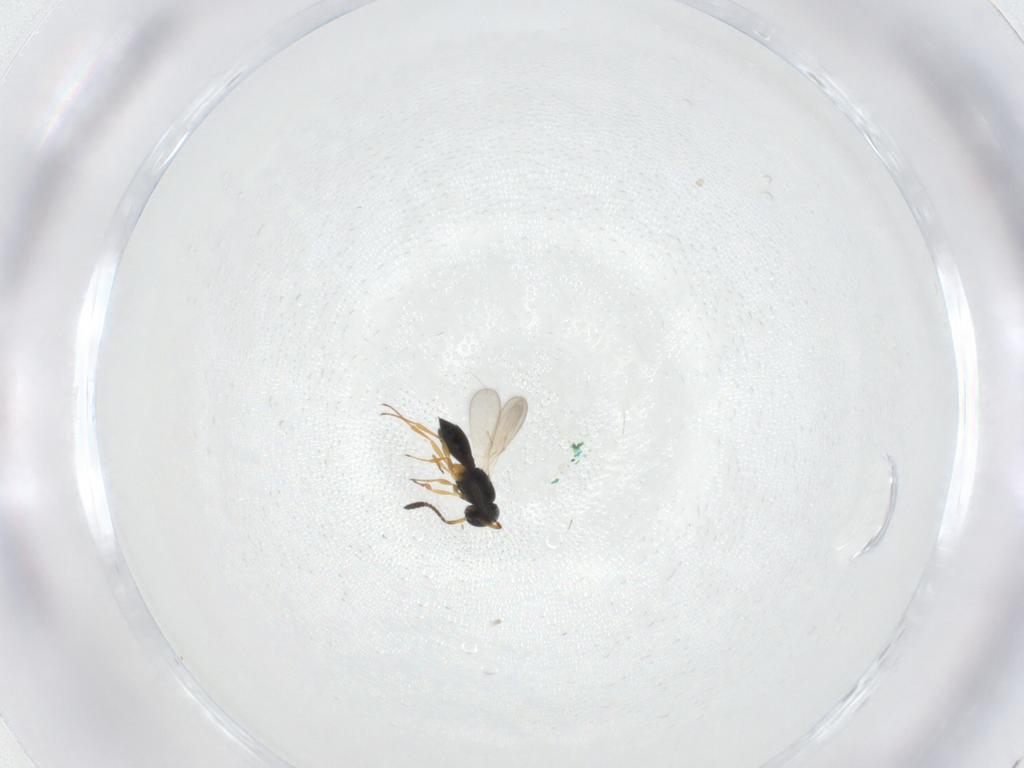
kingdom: Animalia
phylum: Arthropoda
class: Insecta
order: Hymenoptera
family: Scelionidae
